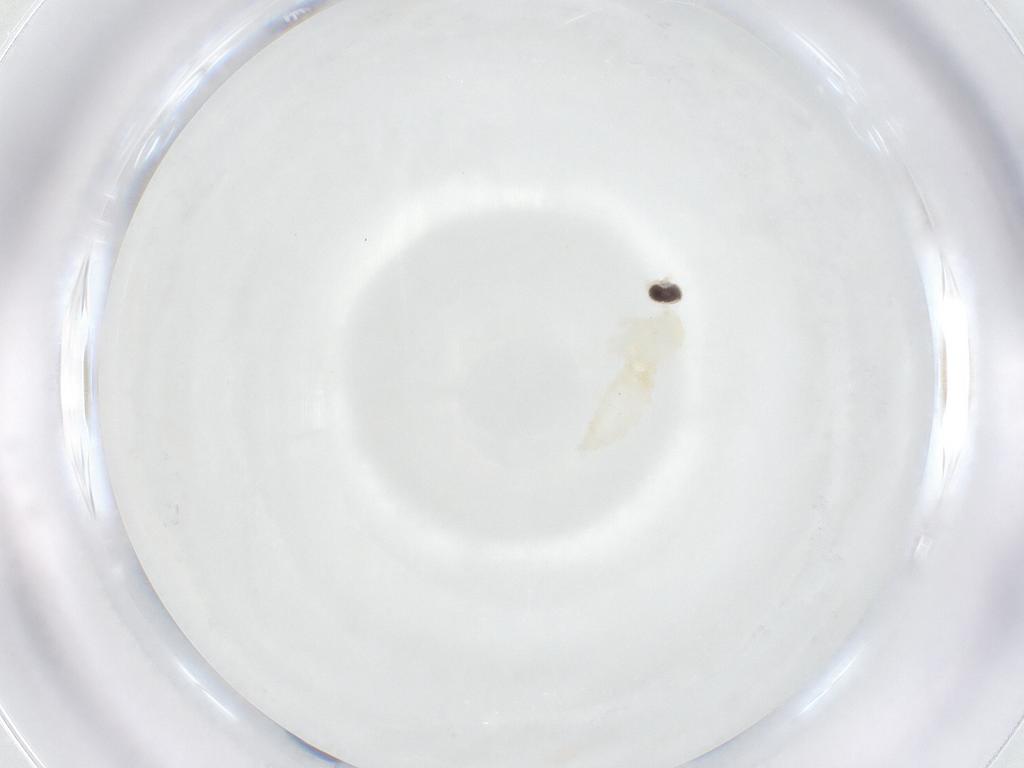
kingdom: Animalia
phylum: Arthropoda
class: Insecta
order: Diptera
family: Cecidomyiidae
